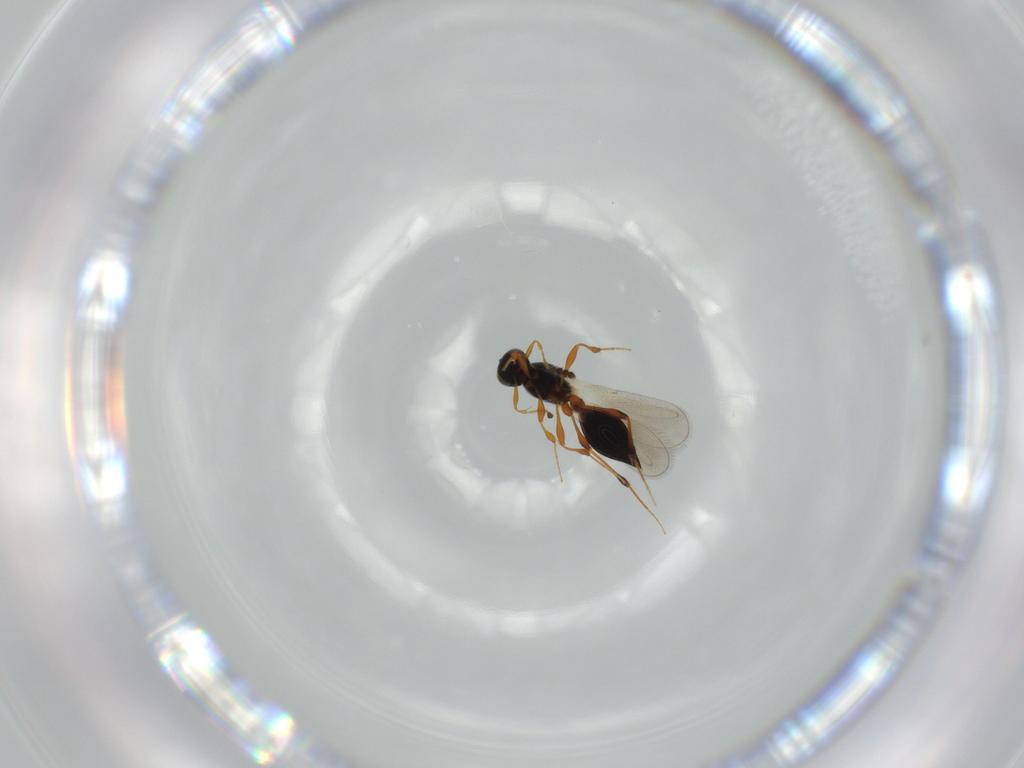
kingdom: Animalia
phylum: Arthropoda
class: Insecta
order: Hymenoptera
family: Platygastridae
